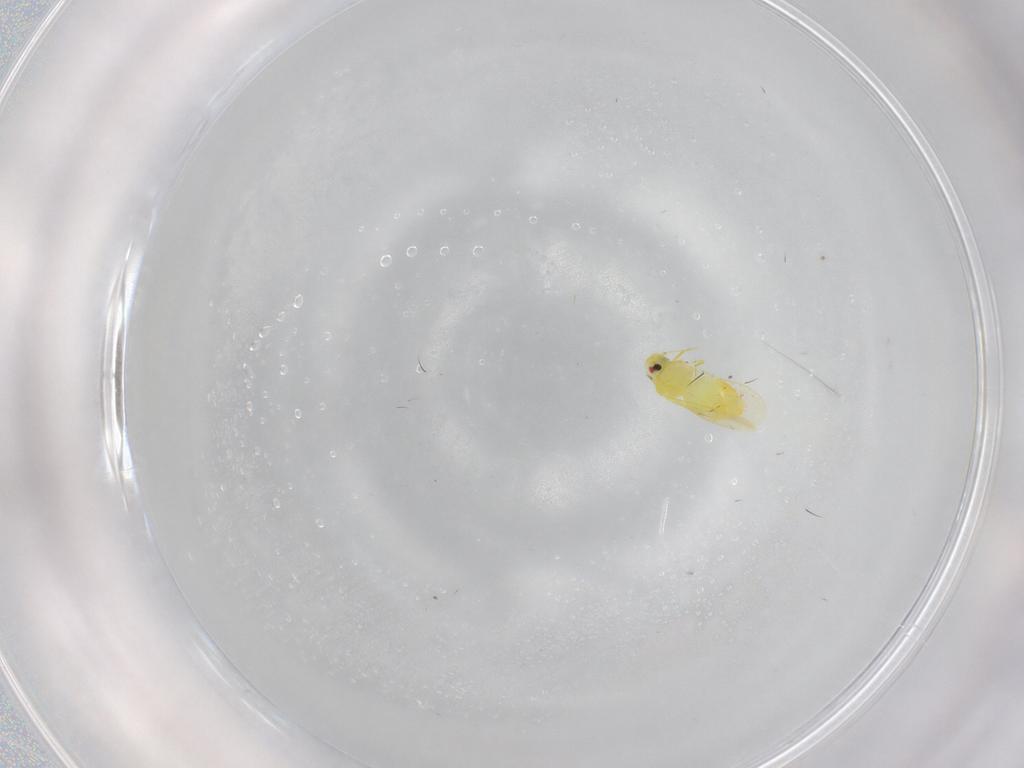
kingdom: Animalia
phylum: Arthropoda
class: Insecta
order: Hemiptera
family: Aleyrodidae
